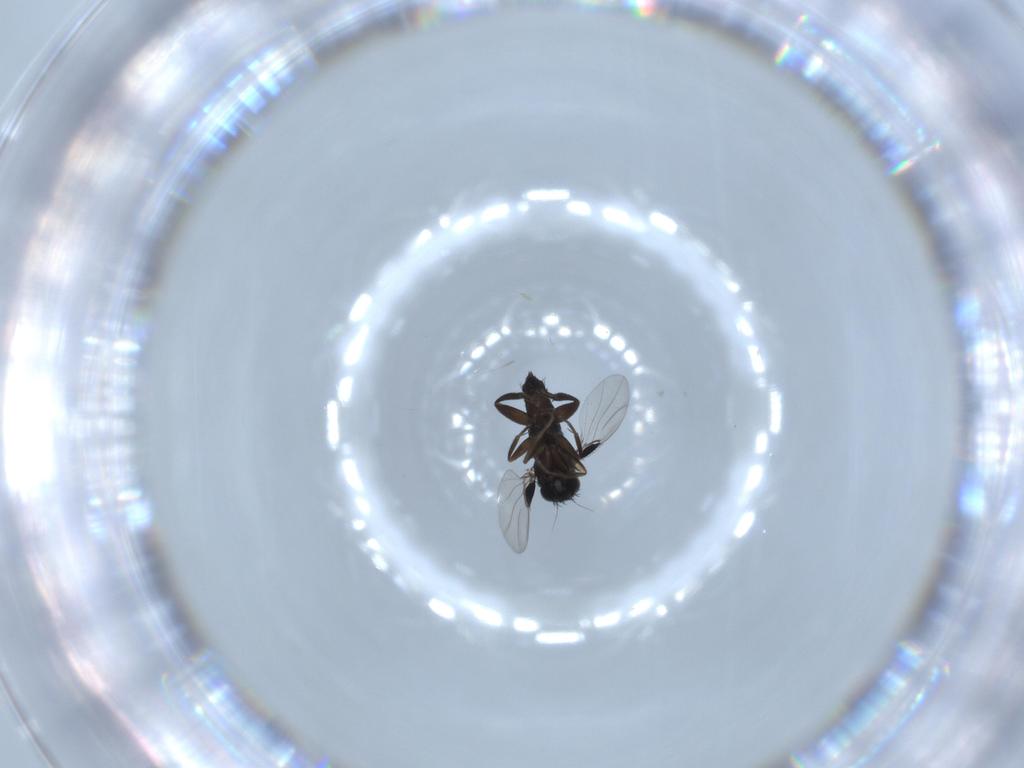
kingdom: Animalia
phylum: Arthropoda
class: Insecta
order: Diptera
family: Phoridae
